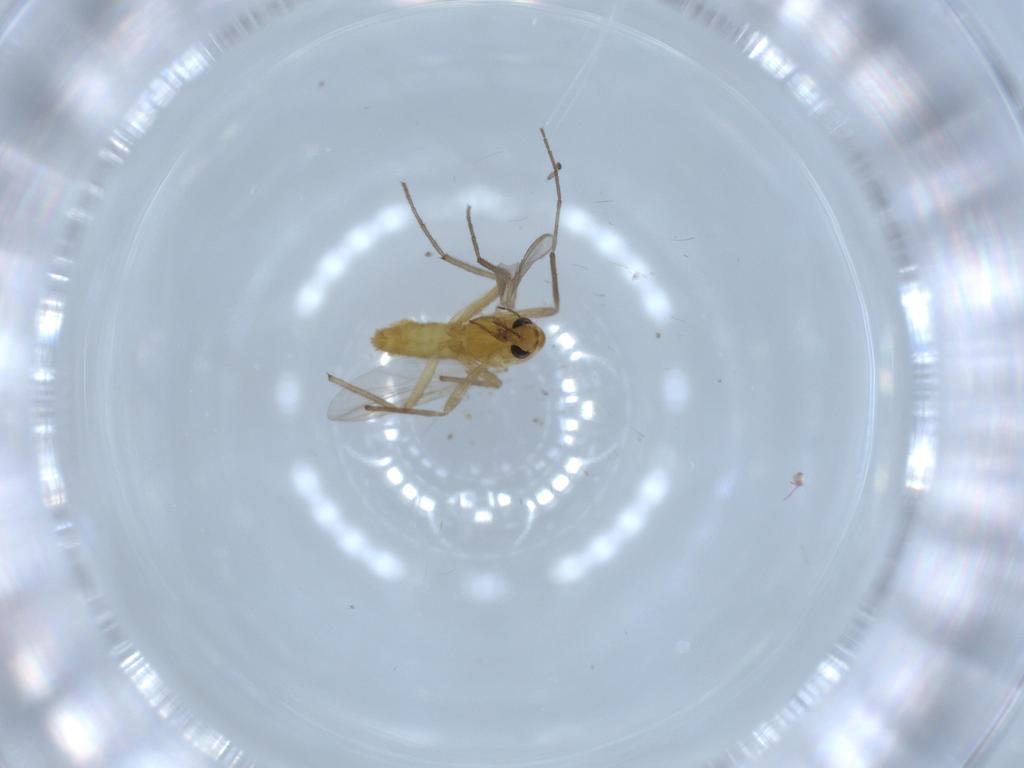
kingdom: Animalia
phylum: Arthropoda
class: Insecta
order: Diptera
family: Chironomidae
